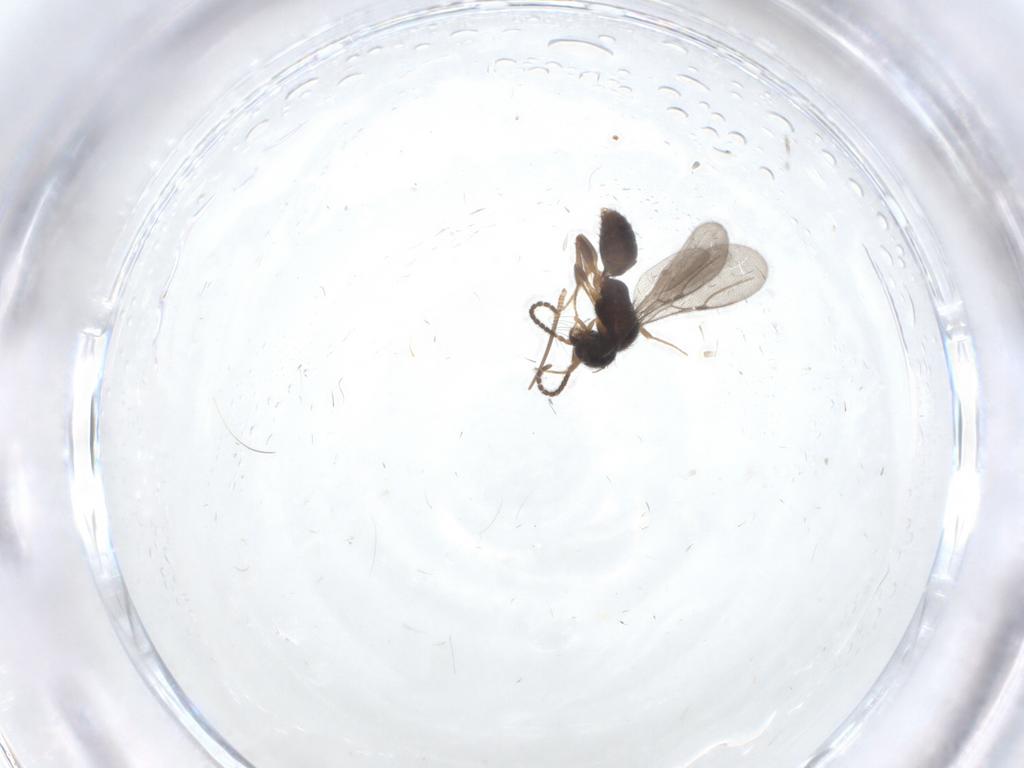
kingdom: Animalia
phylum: Arthropoda
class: Insecta
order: Hymenoptera
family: Bethylidae
